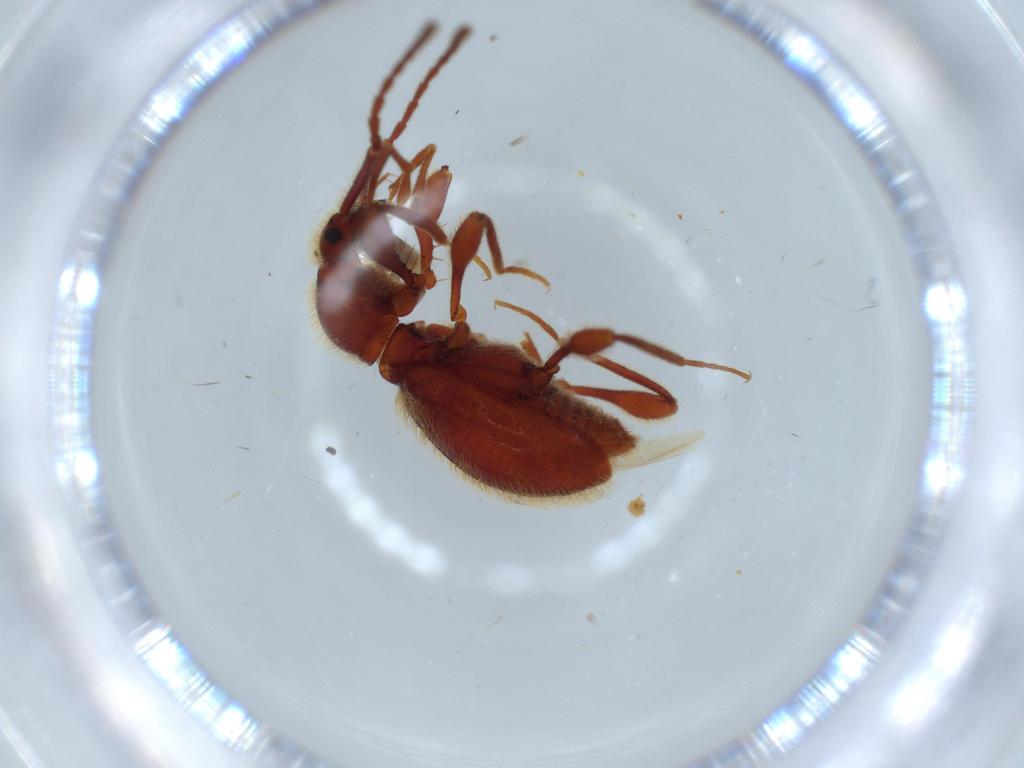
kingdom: Animalia
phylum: Arthropoda
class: Insecta
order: Coleoptera
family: Staphylinidae
